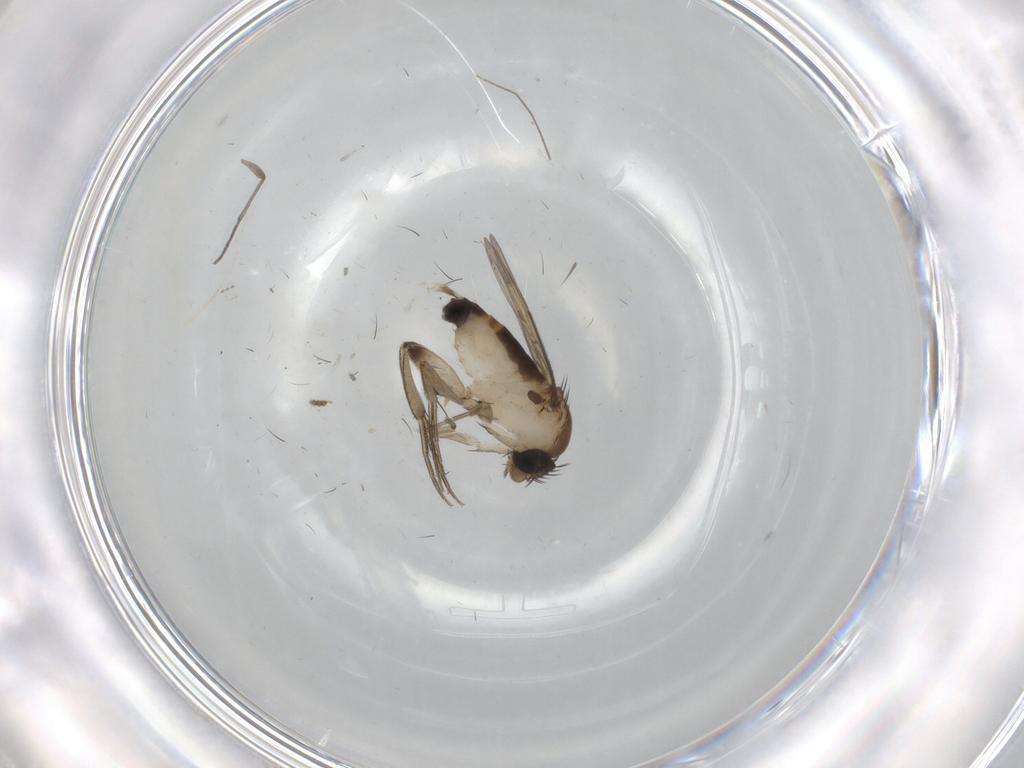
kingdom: Animalia
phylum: Arthropoda
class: Insecta
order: Diptera
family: Phoridae
